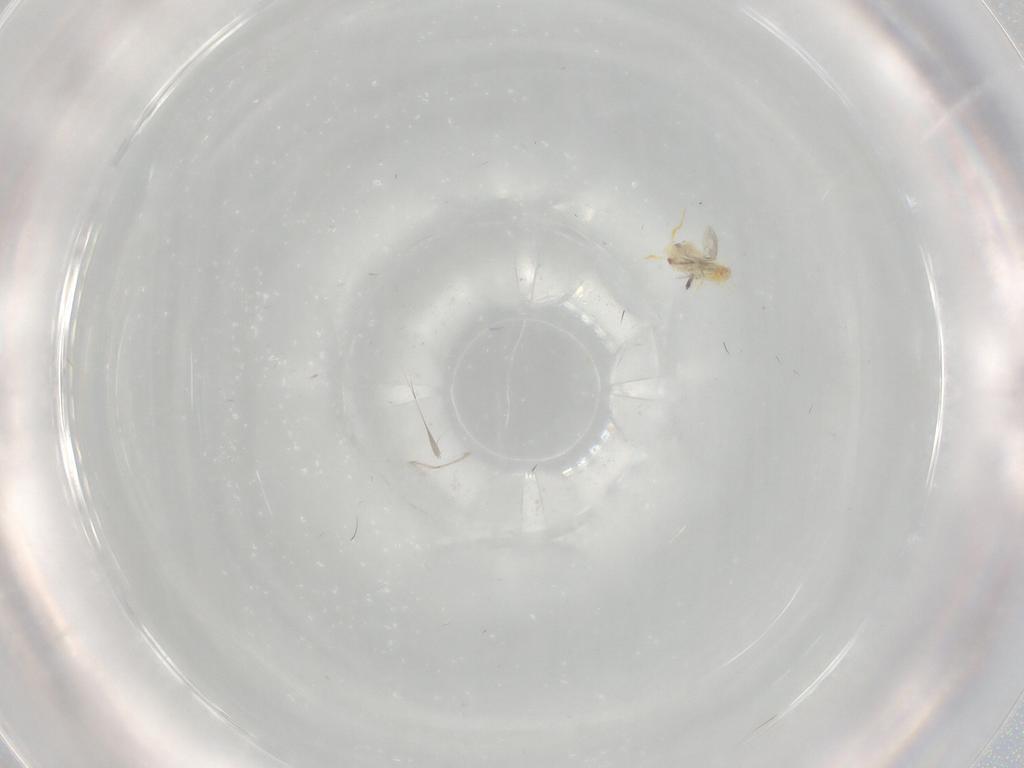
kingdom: Animalia
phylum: Arthropoda
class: Insecta
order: Hemiptera
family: Aleyrodidae
